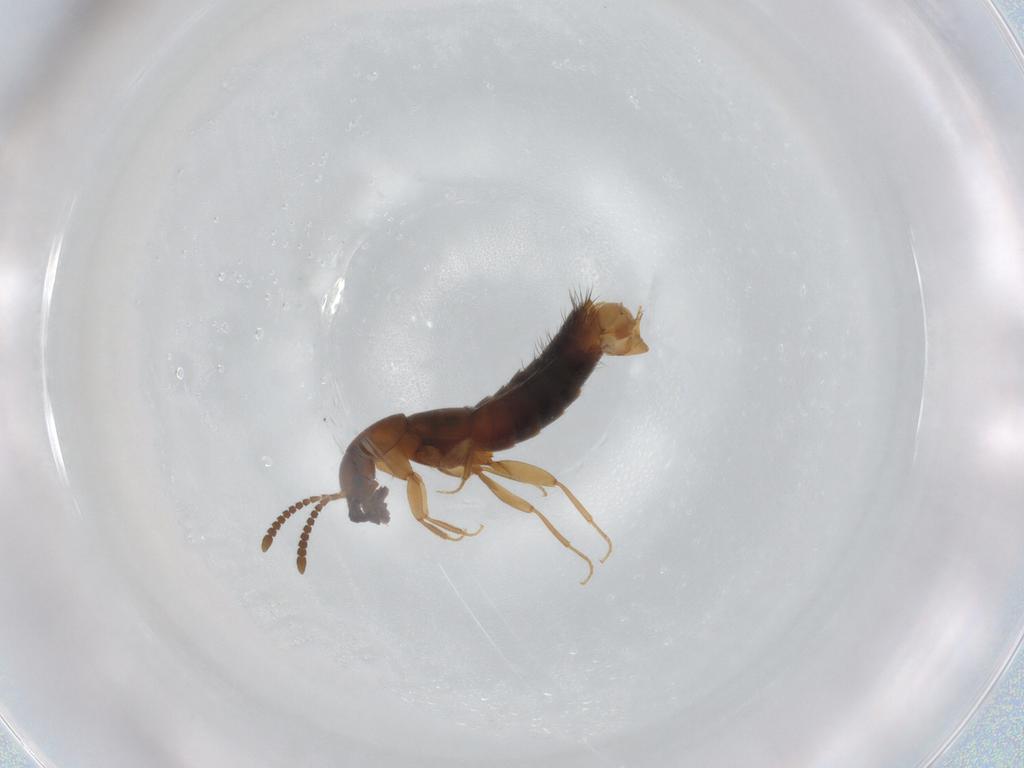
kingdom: Animalia
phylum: Arthropoda
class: Insecta
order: Coleoptera
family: Staphylinidae
